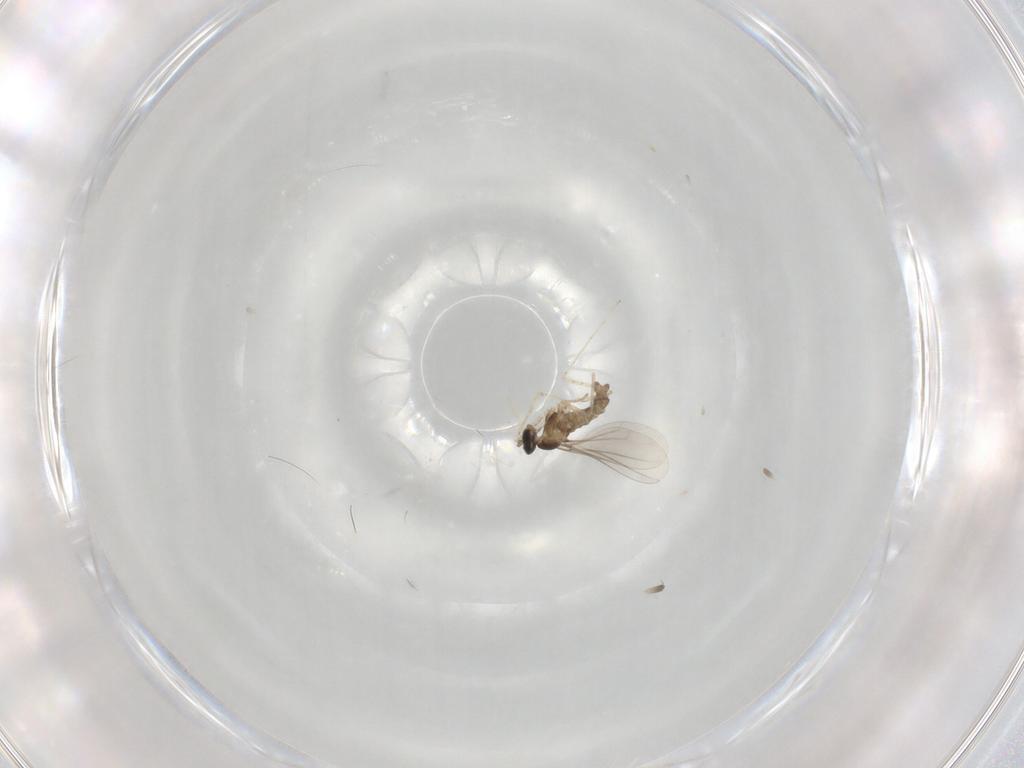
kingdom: Animalia
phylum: Arthropoda
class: Insecta
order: Diptera
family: Cecidomyiidae
